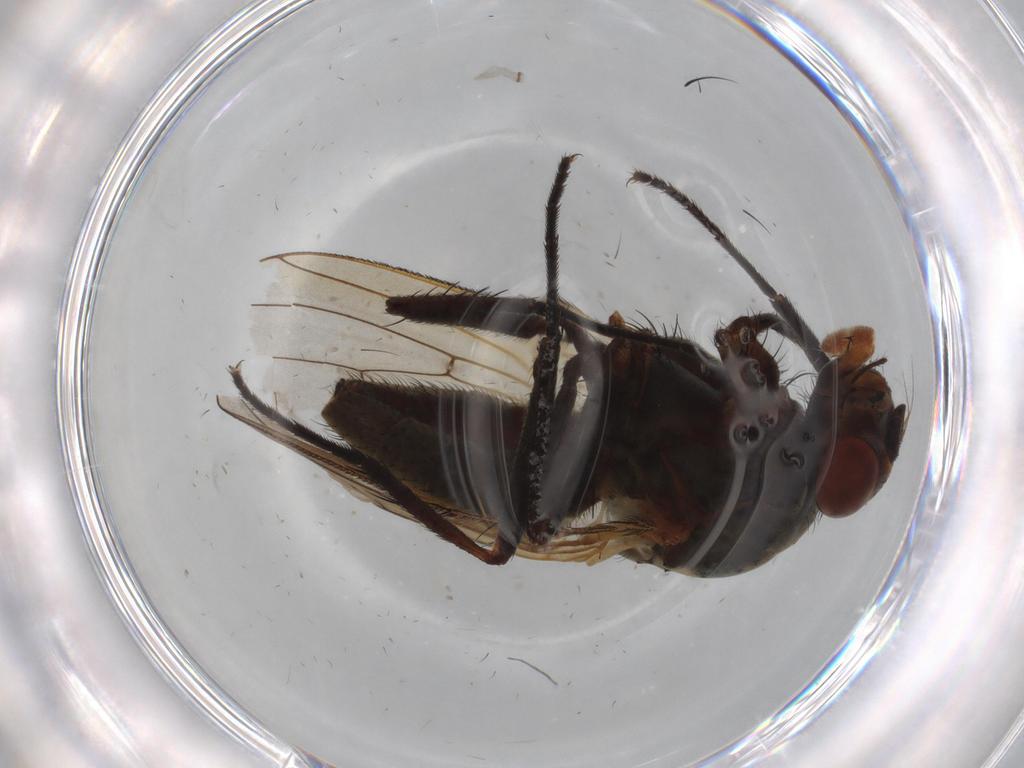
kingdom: Animalia
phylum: Arthropoda
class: Insecta
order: Diptera
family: Anthomyiidae
